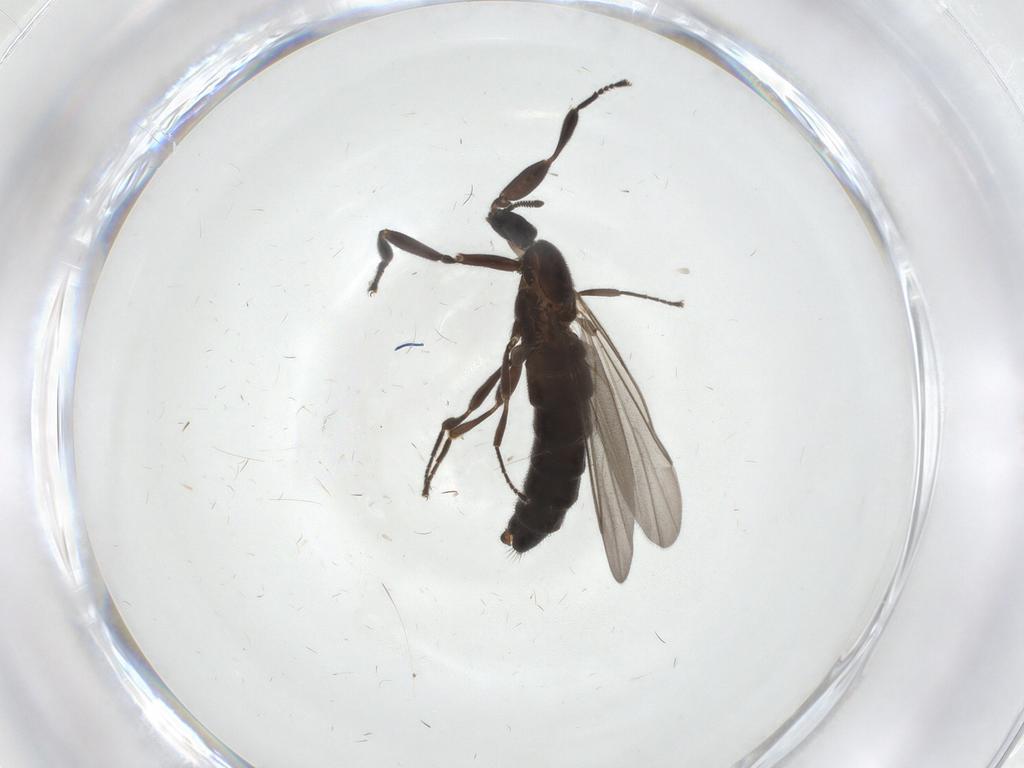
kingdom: Animalia
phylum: Arthropoda
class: Insecta
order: Diptera
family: Scatopsidae
